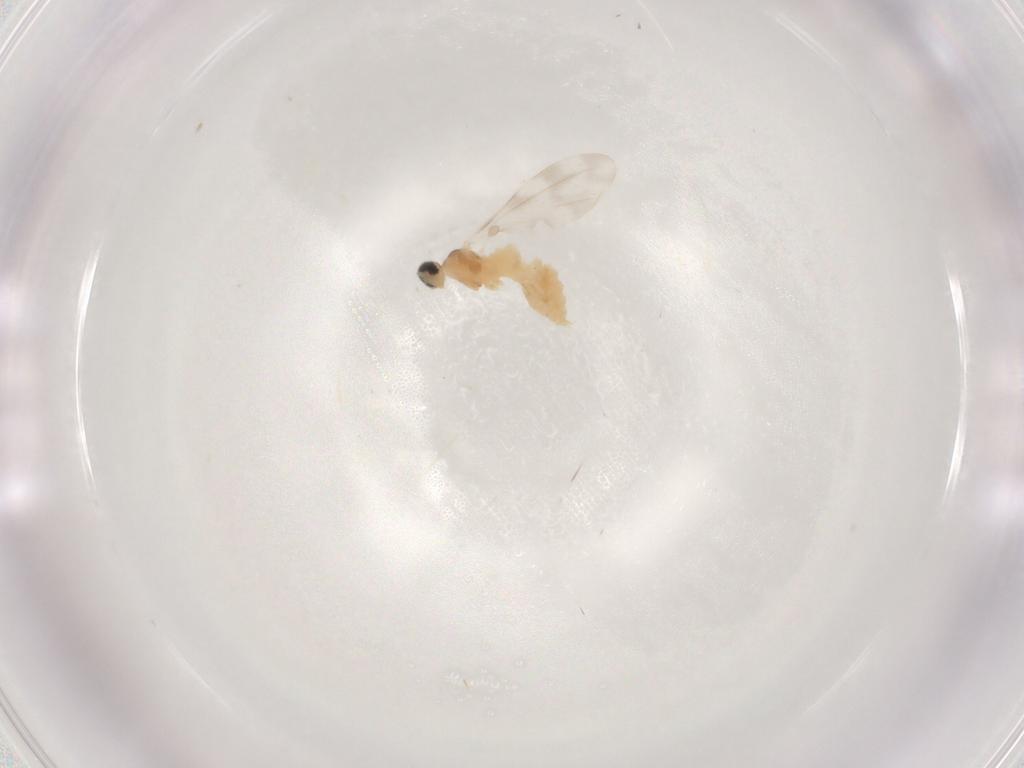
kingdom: Animalia
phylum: Arthropoda
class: Insecta
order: Diptera
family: Cecidomyiidae
